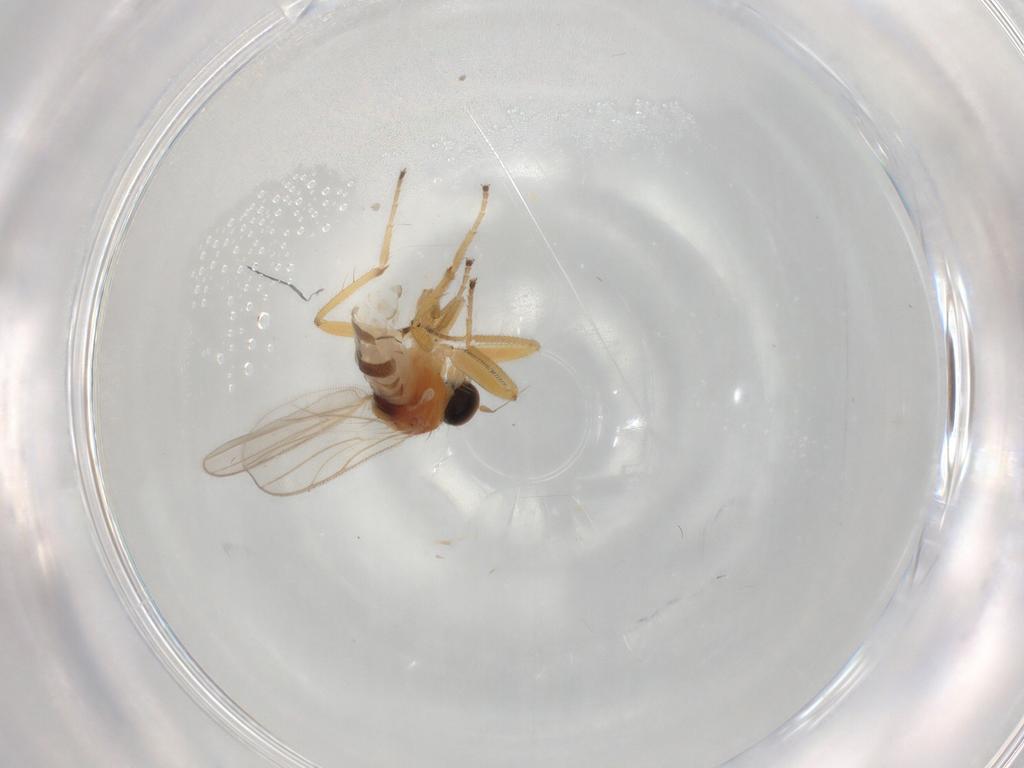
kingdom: Animalia
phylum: Arthropoda
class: Insecta
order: Diptera
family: Hybotidae
